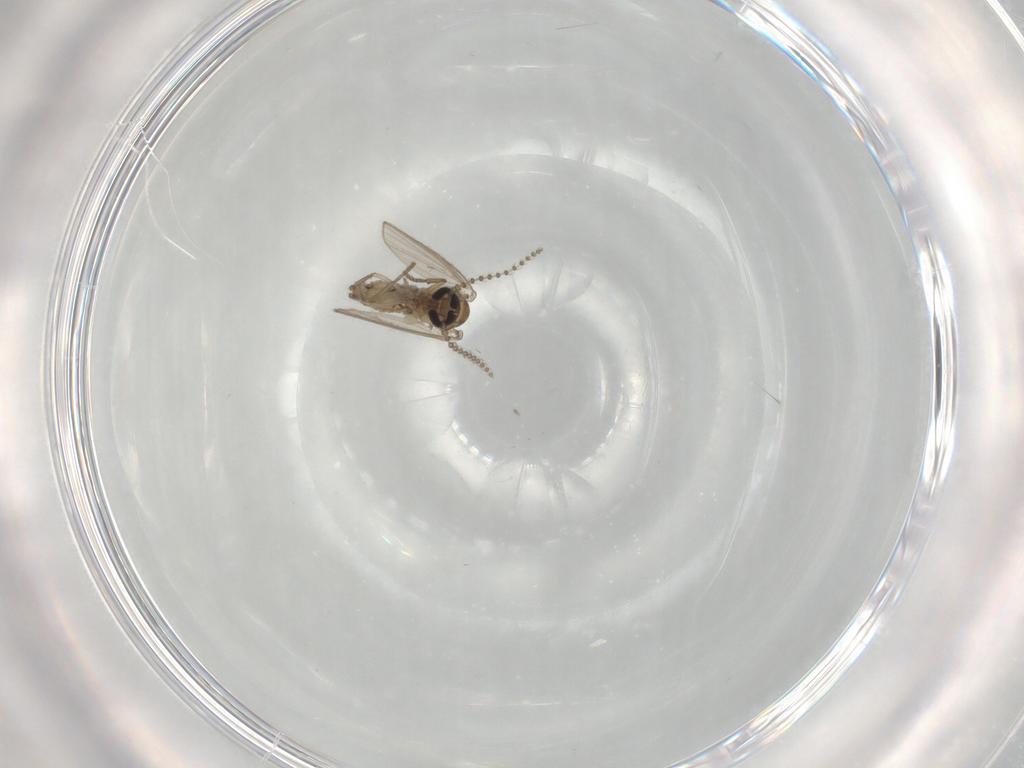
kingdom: Animalia
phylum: Arthropoda
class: Insecta
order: Diptera
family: Psychodidae
